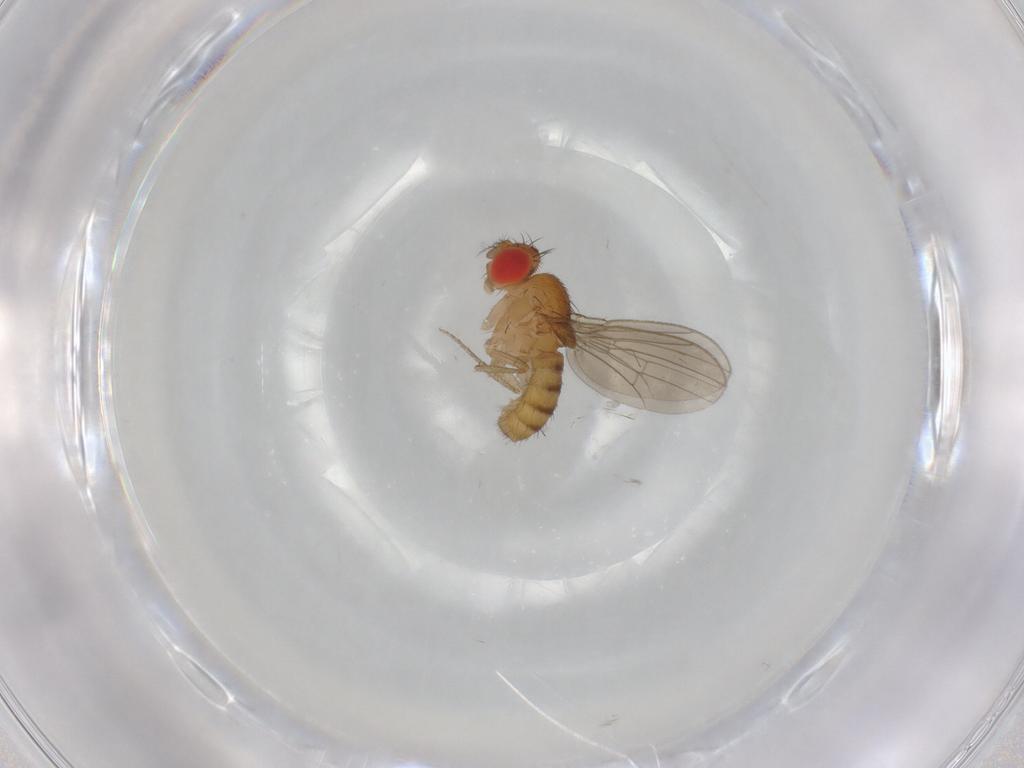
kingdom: Animalia
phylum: Arthropoda
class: Insecta
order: Diptera
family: Drosophilidae
